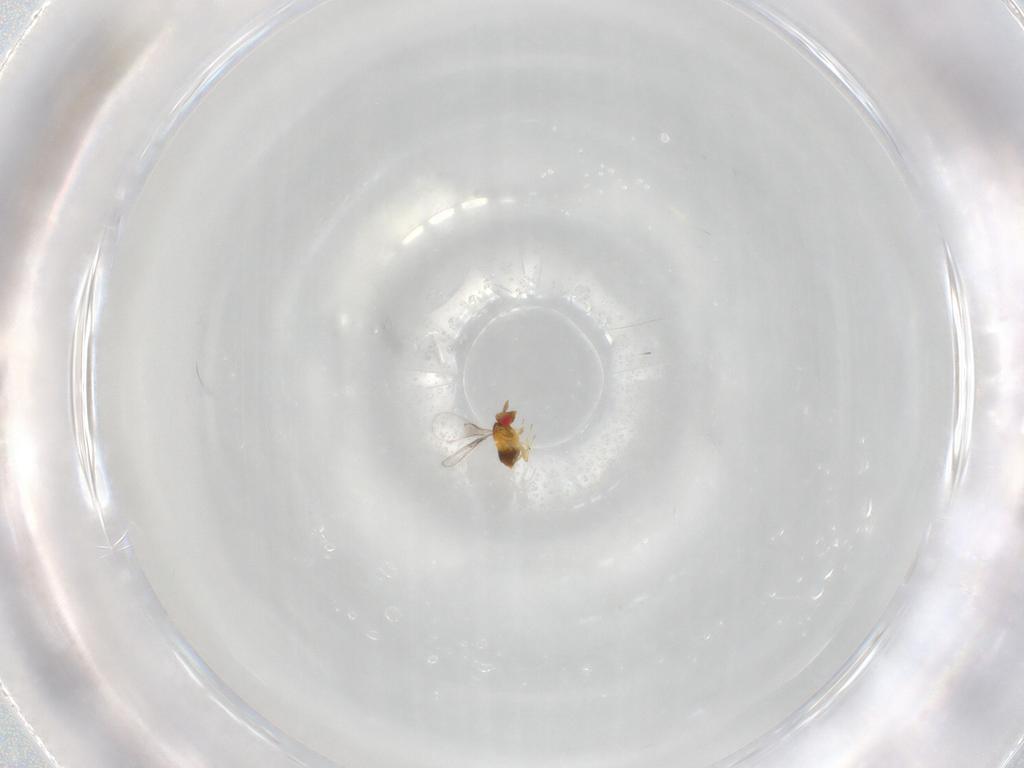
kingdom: Animalia
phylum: Arthropoda
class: Insecta
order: Hymenoptera
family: Trichogrammatidae
